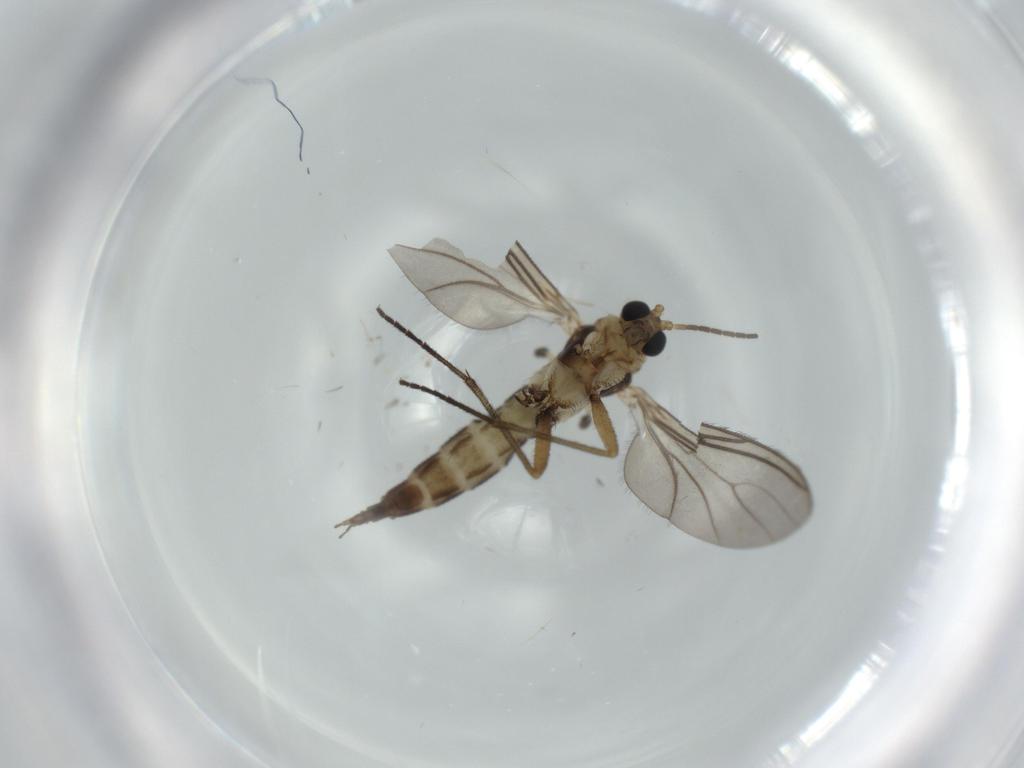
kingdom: Animalia
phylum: Arthropoda
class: Insecta
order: Diptera
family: Sciaridae
